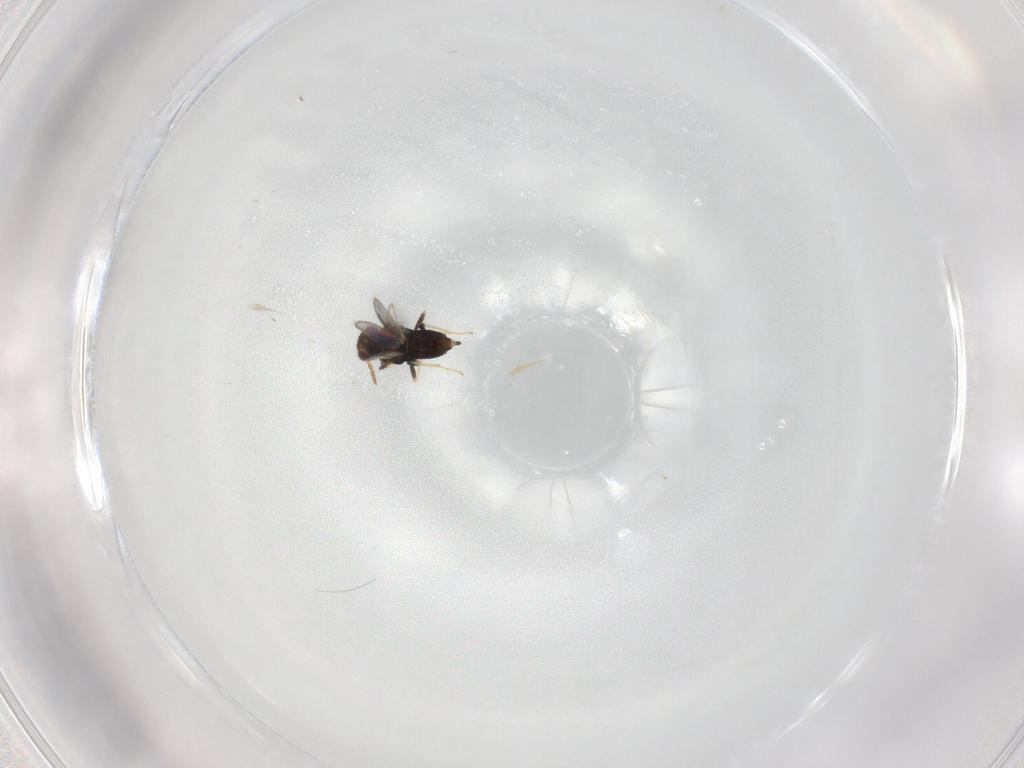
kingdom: Animalia
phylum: Arthropoda
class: Insecta
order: Hymenoptera
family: Aphelinidae
